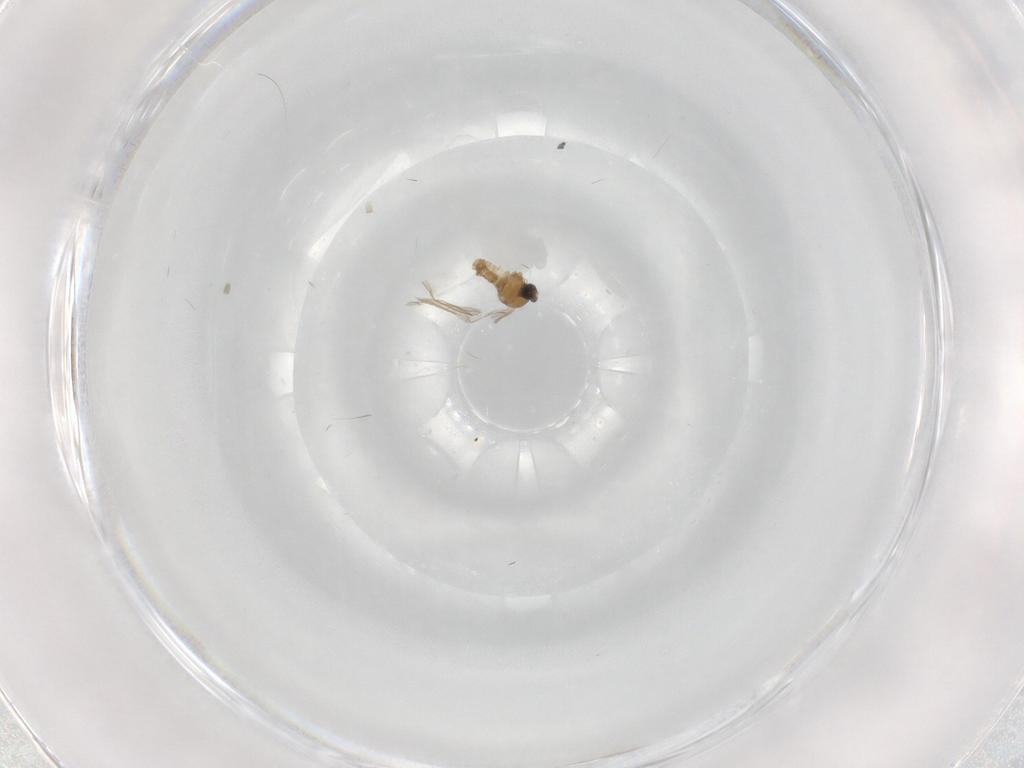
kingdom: Animalia
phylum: Arthropoda
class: Insecta
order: Diptera
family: Cecidomyiidae
